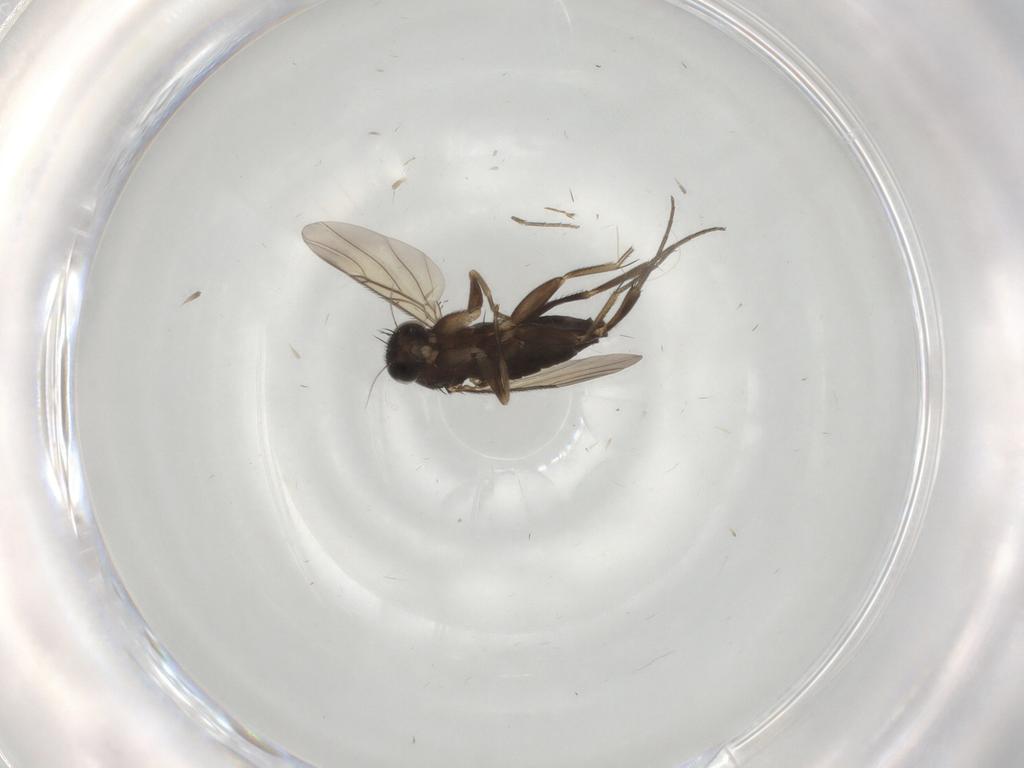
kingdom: Animalia
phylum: Arthropoda
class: Insecta
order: Diptera
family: Phoridae
